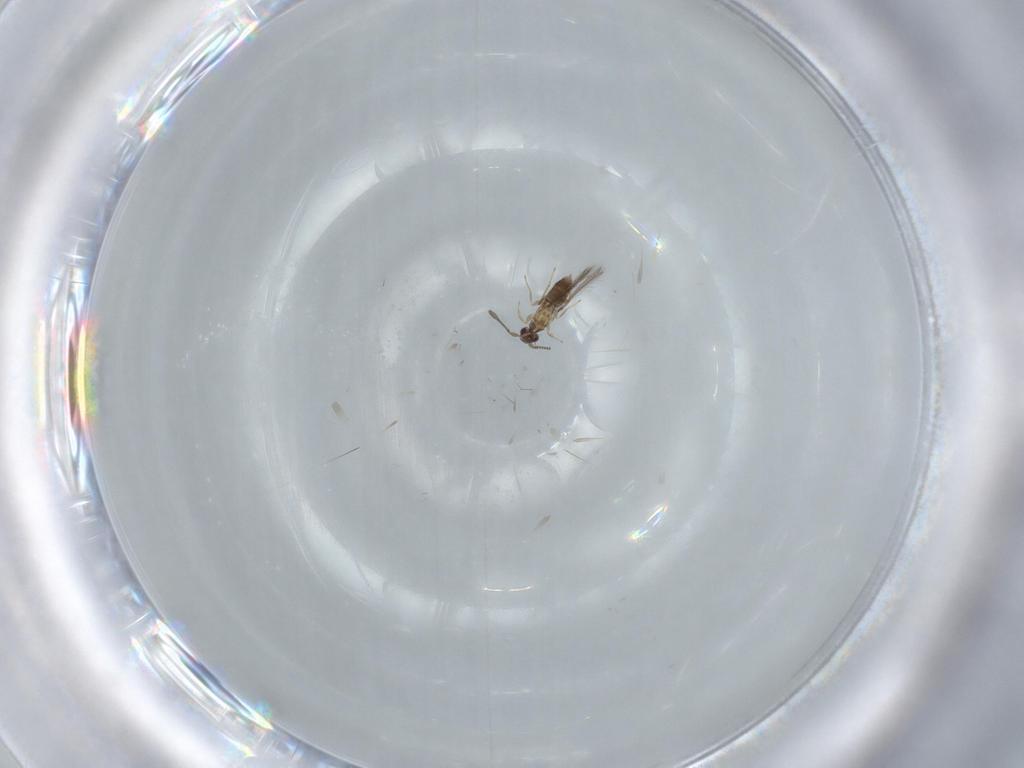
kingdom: Animalia
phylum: Arthropoda
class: Insecta
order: Hymenoptera
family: Mymaridae
